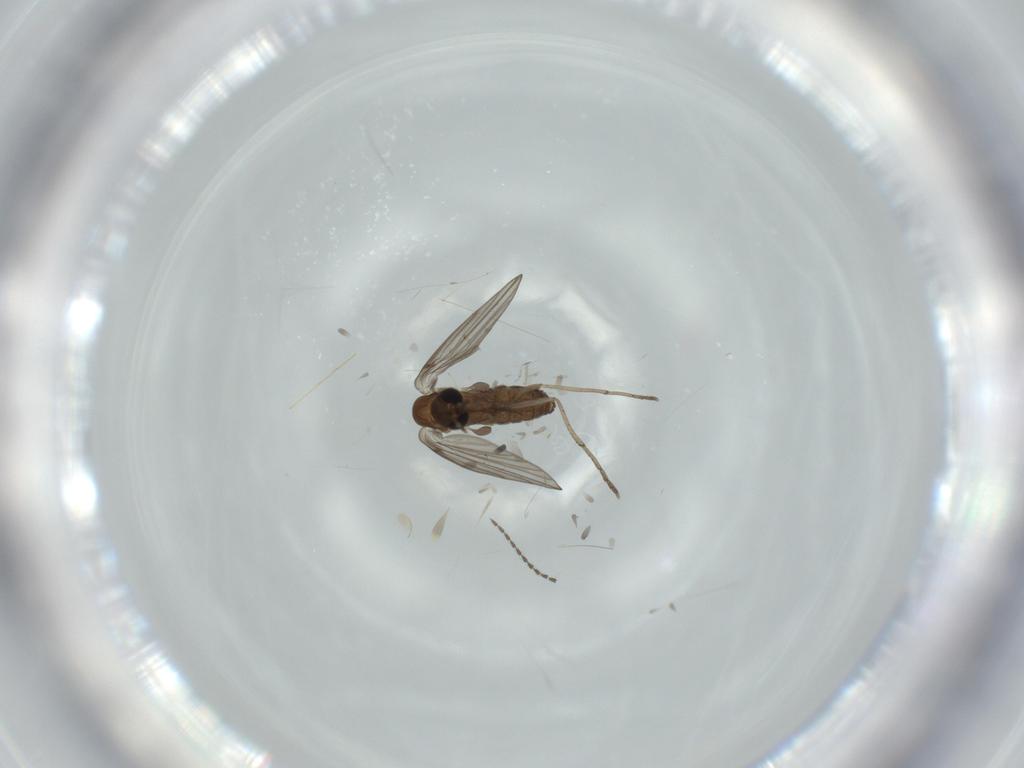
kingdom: Animalia
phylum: Arthropoda
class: Insecta
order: Diptera
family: Psychodidae
